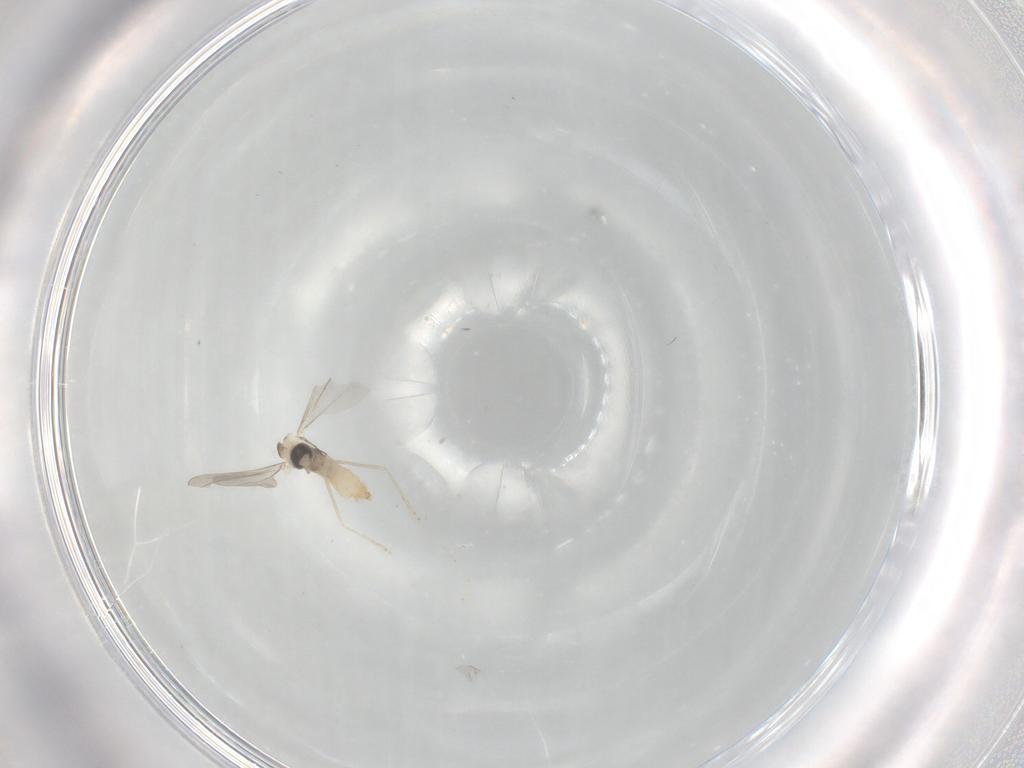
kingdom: Animalia
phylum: Arthropoda
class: Insecta
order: Diptera
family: Cecidomyiidae
